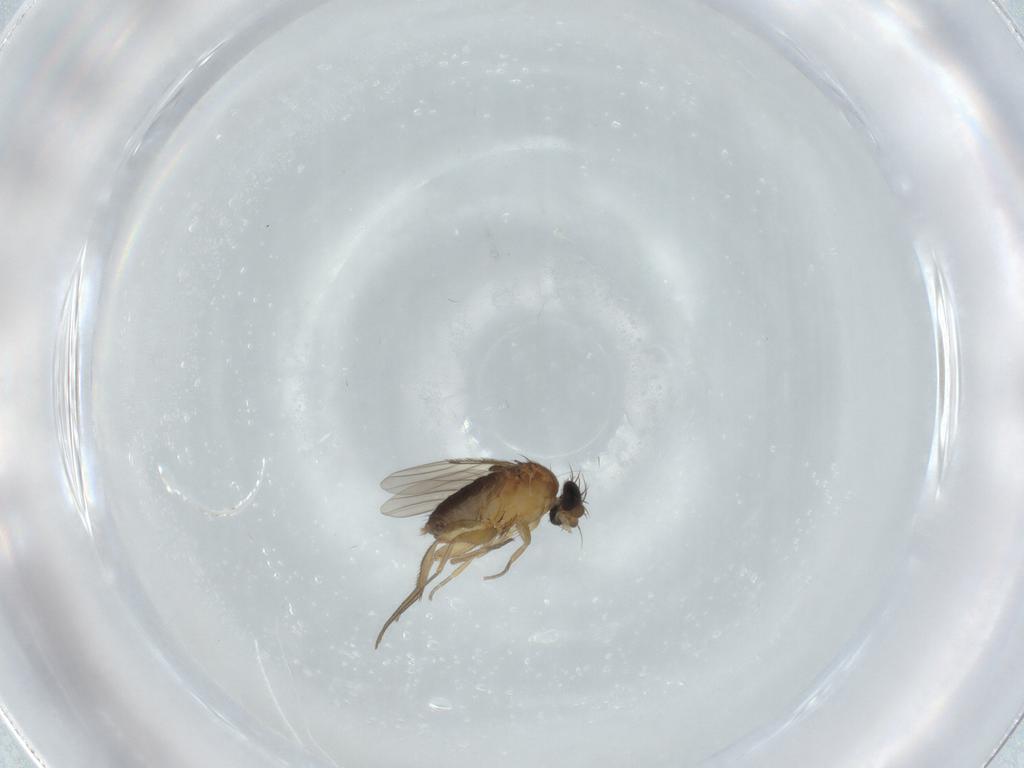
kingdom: Animalia
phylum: Arthropoda
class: Insecta
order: Diptera
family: Phoridae
